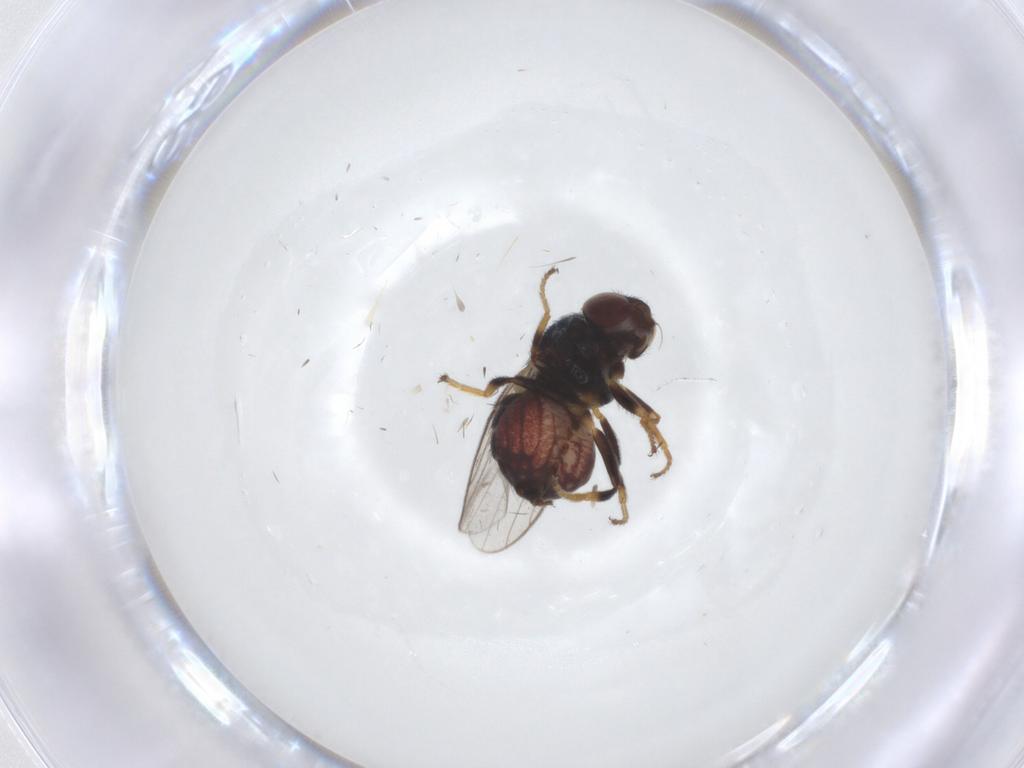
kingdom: Animalia
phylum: Arthropoda
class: Insecta
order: Diptera
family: Chloropidae
